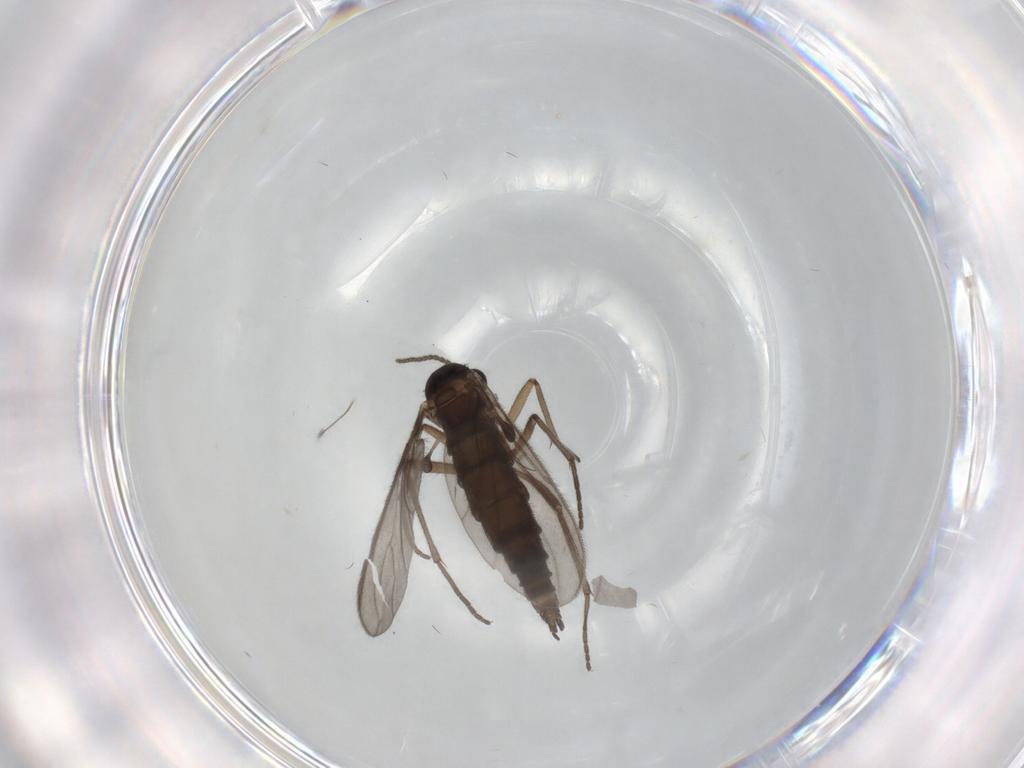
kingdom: Animalia
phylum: Arthropoda
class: Insecta
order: Diptera
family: Sciaridae
